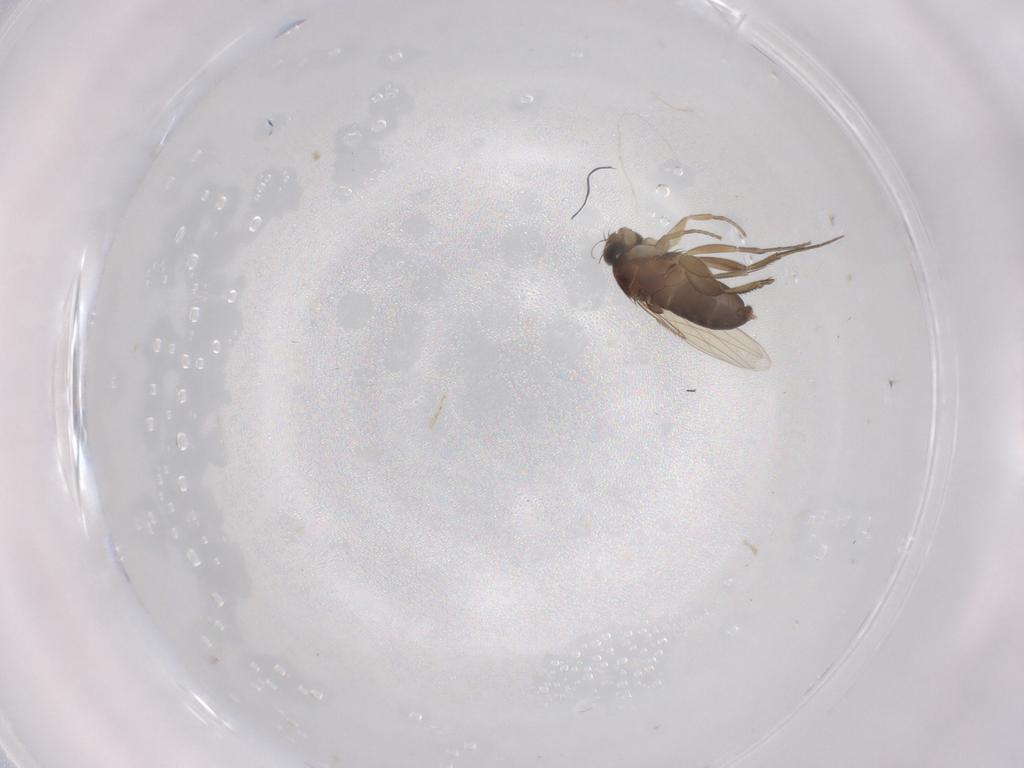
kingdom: Animalia
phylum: Arthropoda
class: Insecta
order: Diptera
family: Phoridae
